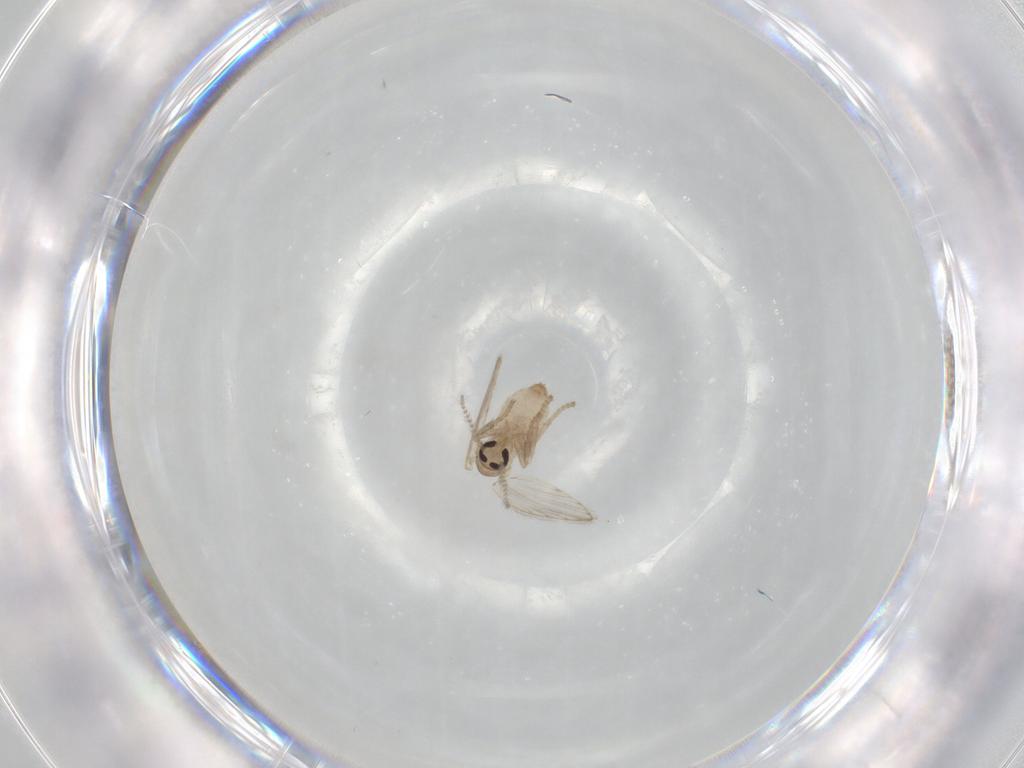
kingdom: Animalia
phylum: Arthropoda
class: Insecta
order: Diptera
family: Psychodidae
